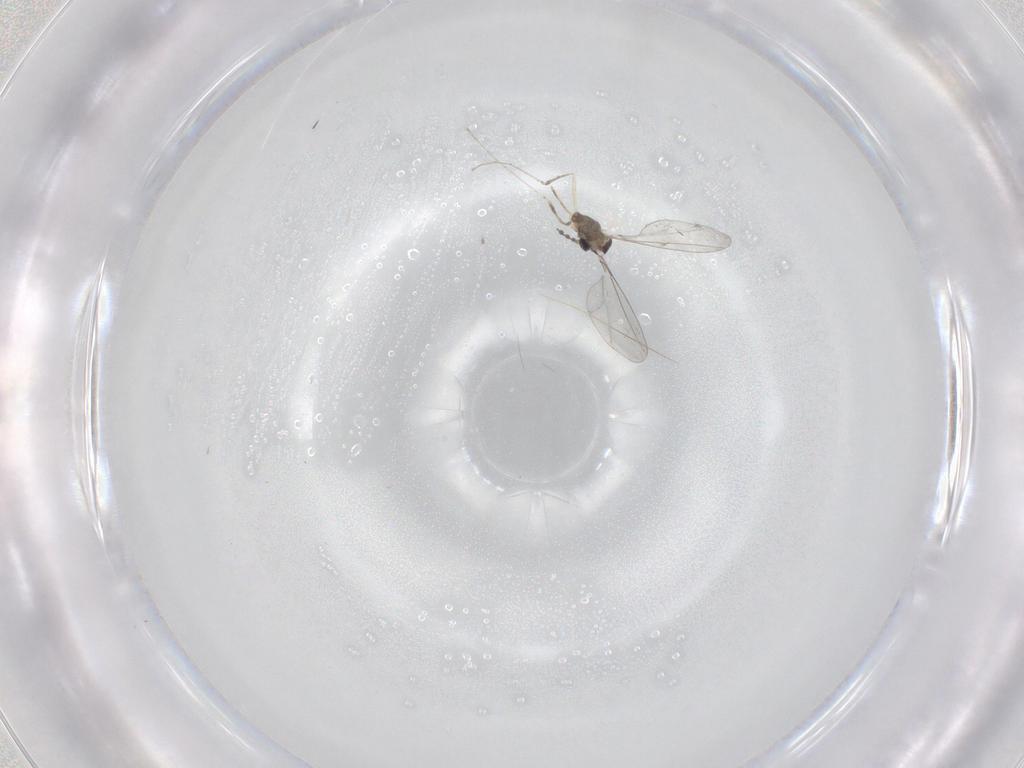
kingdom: Animalia
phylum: Arthropoda
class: Insecta
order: Diptera
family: Cecidomyiidae
